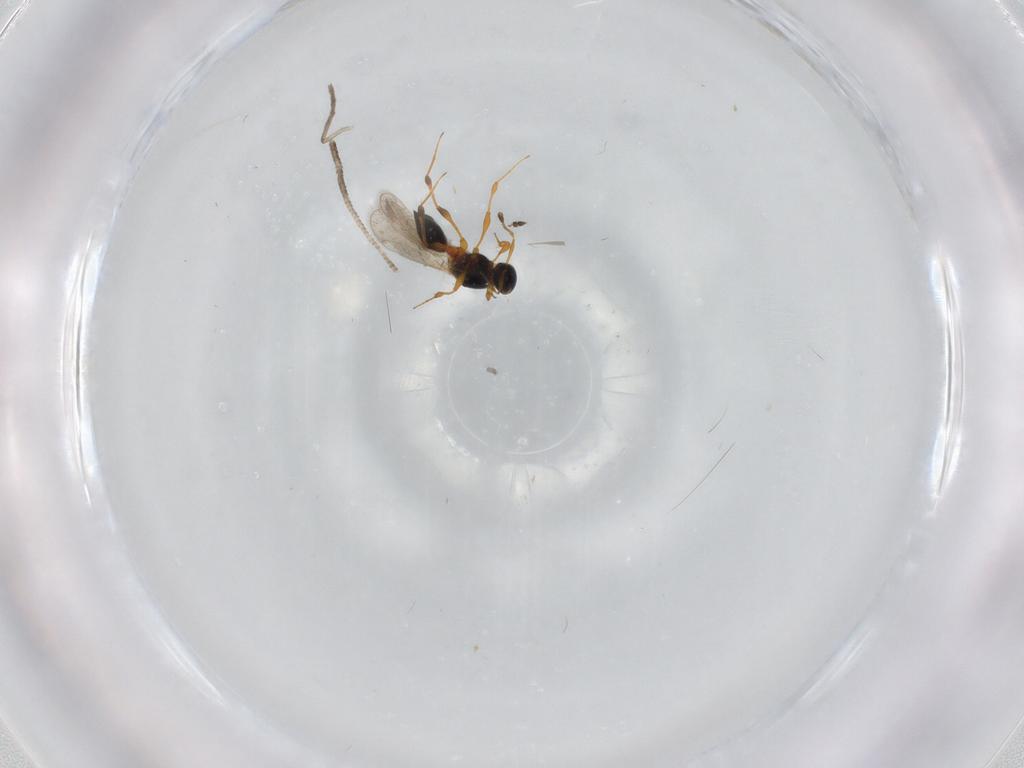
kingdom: Animalia
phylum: Arthropoda
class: Insecta
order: Hymenoptera
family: Platygastridae
